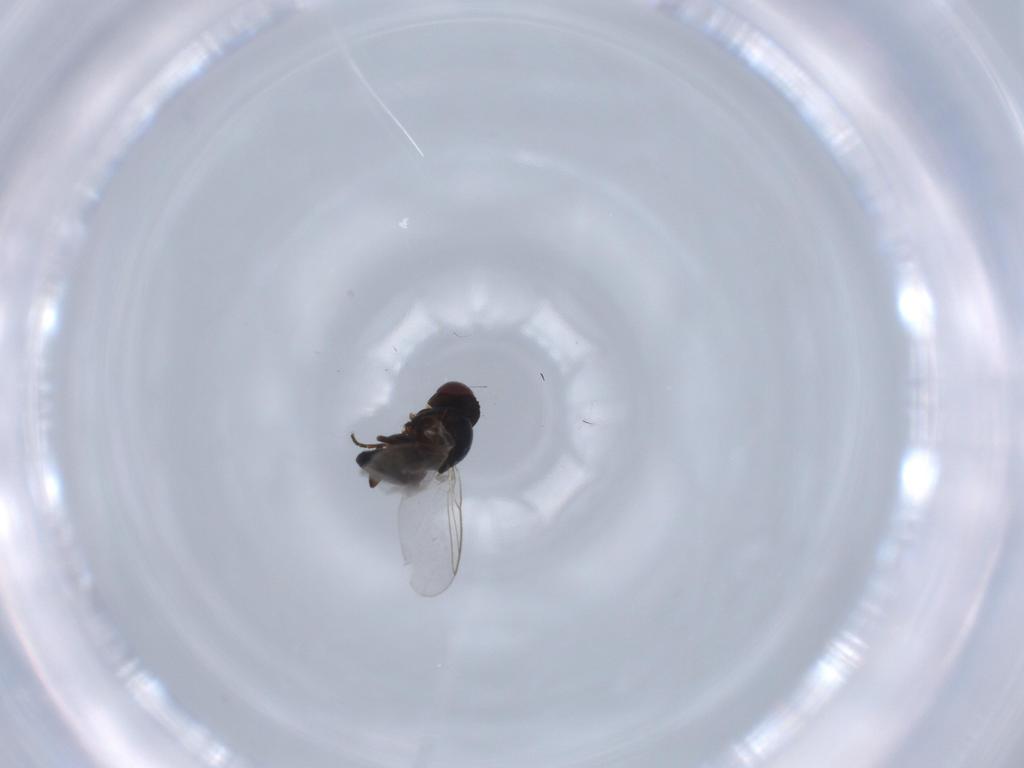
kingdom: Animalia
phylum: Arthropoda
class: Insecta
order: Diptera
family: Agromyzidae
